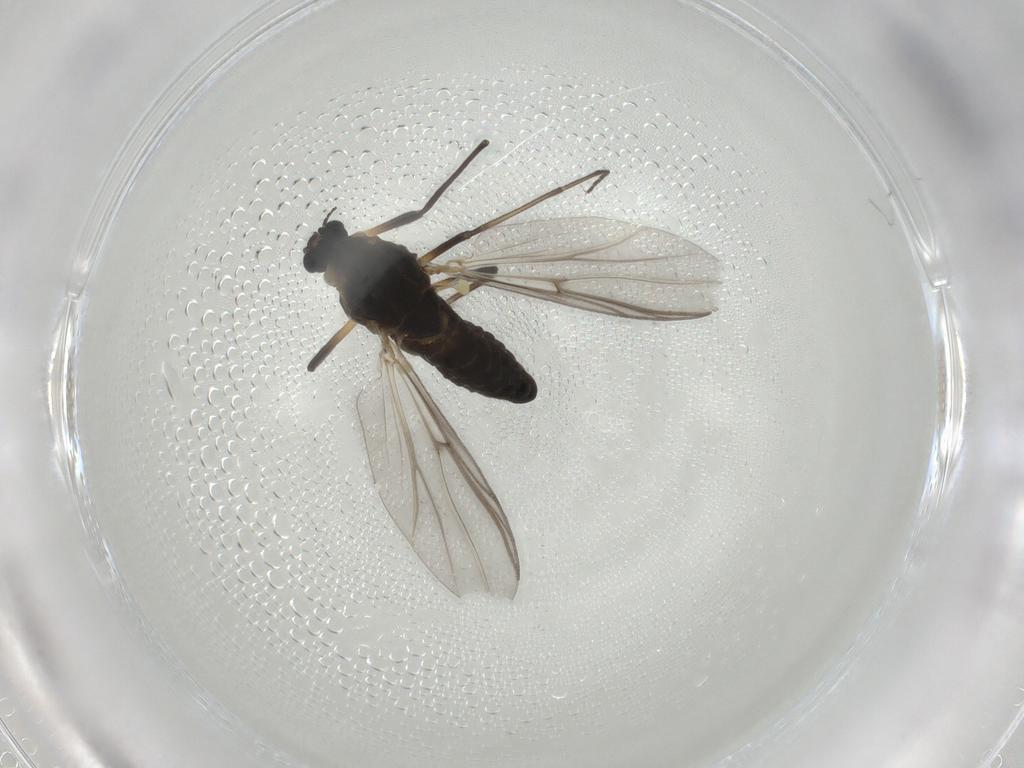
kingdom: Animalia
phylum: Arthropoda
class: Insecta
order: Diptera
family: Chironomidae
